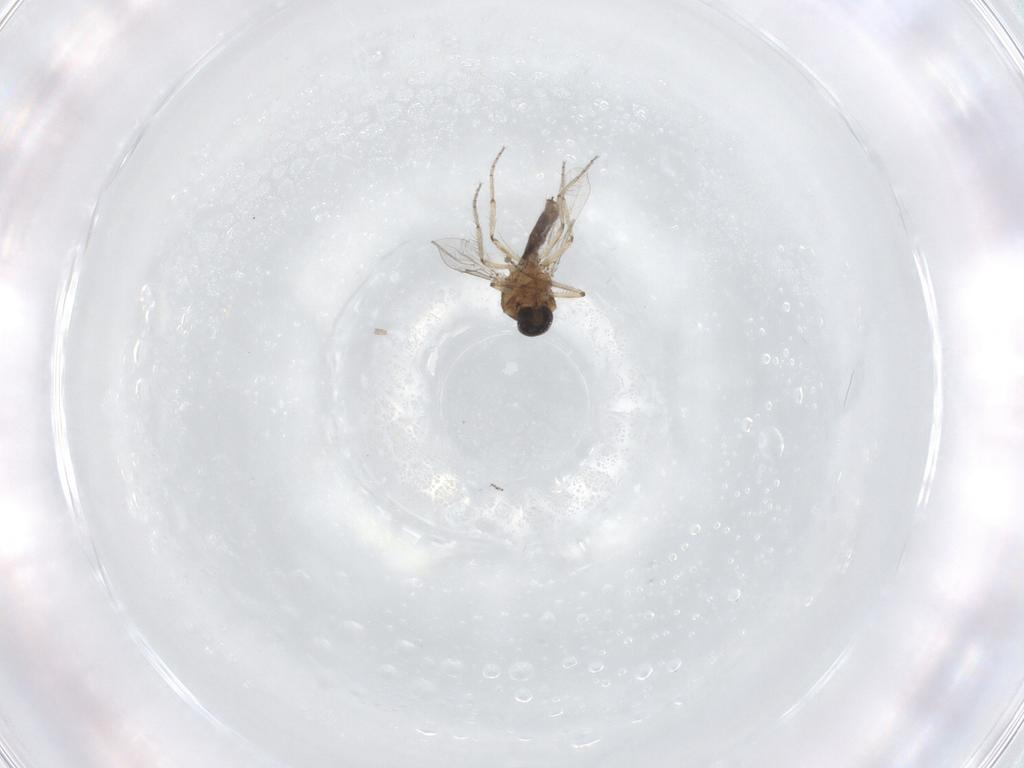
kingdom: Animalia
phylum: Arthropoda
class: Insecta
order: Diptera
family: Ceratopogonidae
